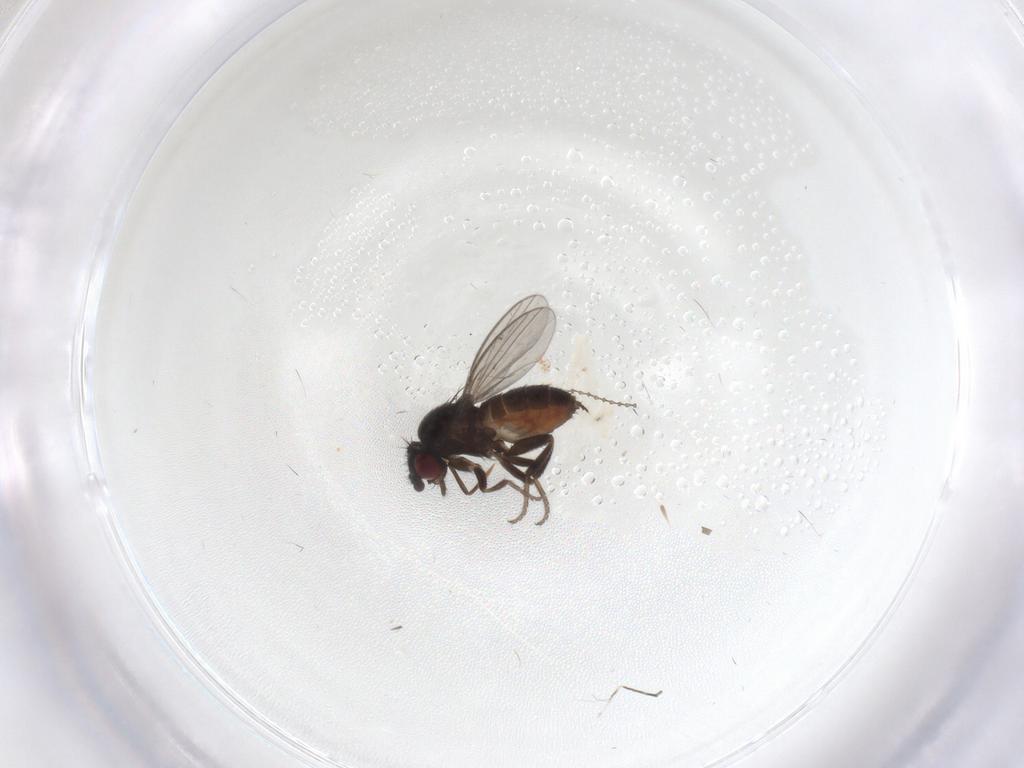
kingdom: Animalia
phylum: Arthropoda
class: Insecta
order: Diptera
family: Milichiidae
